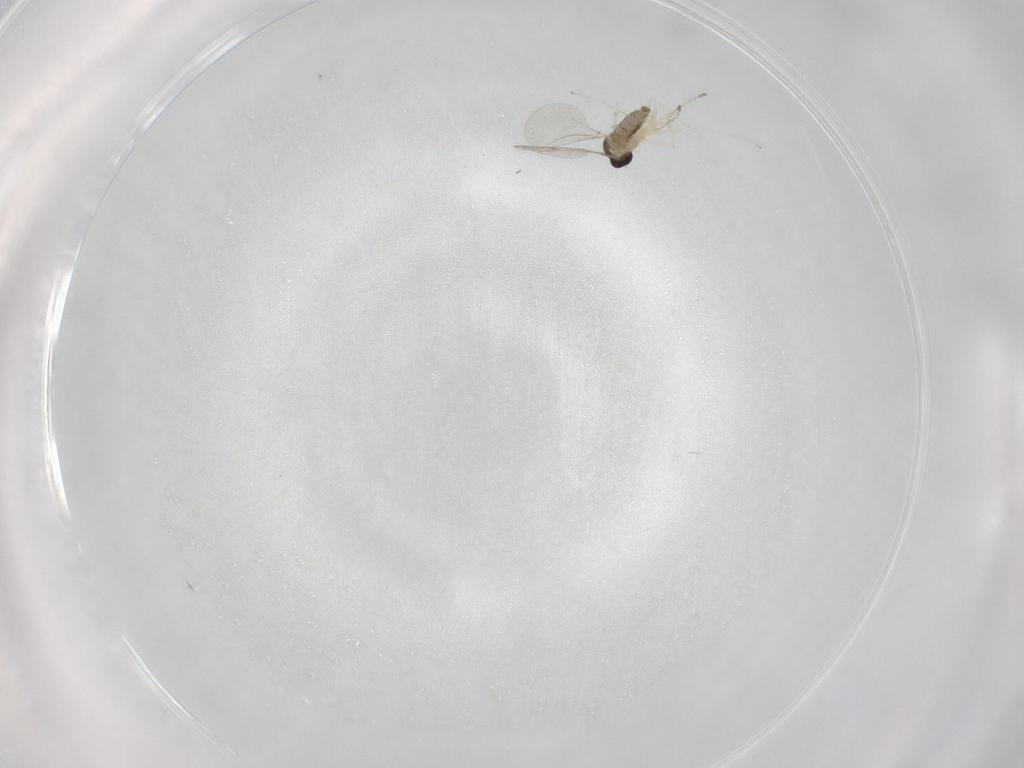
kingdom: Animalia
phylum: Arthropoda
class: Insecta
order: Diptera
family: Cecidomyiidae
